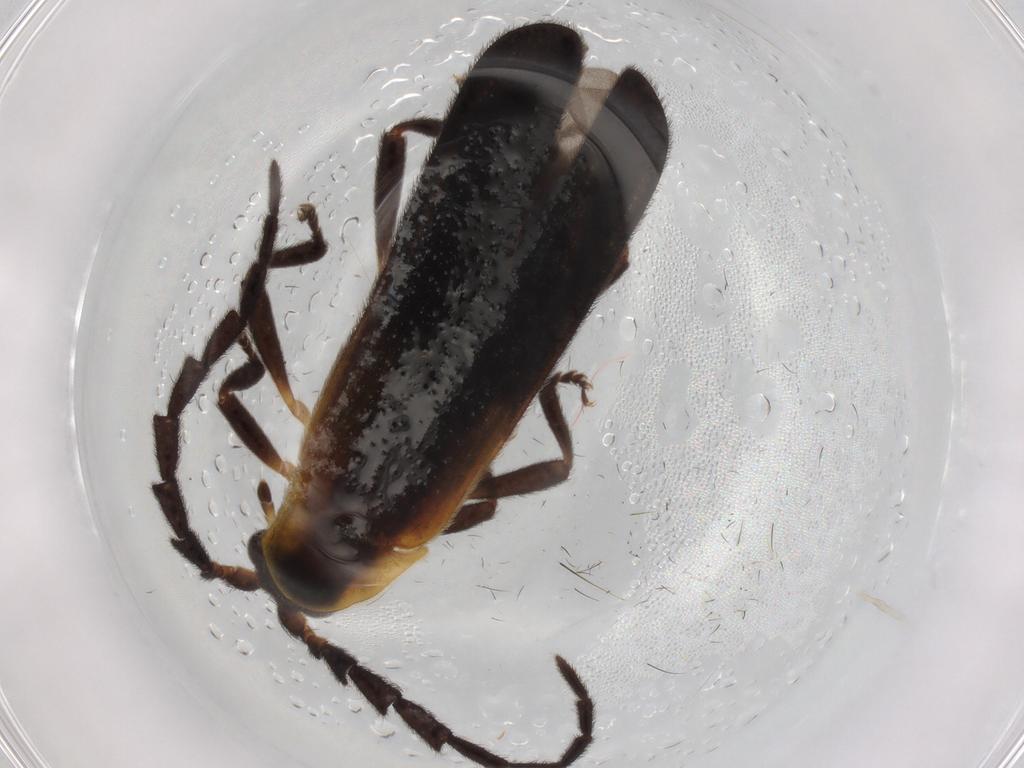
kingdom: Animalia
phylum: Arthropoda
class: Insecta
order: Coleoptera
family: Lycidae
